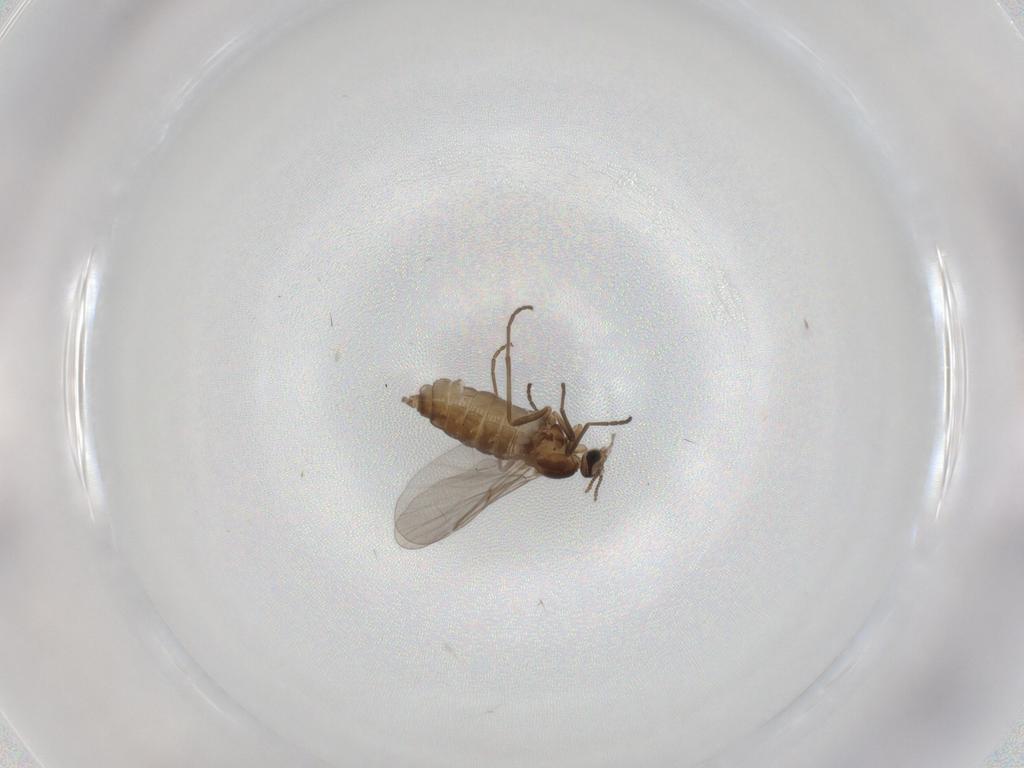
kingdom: Animalia
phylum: Arthropoda
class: Insecta
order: Diptera
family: Cecidomyiidae
